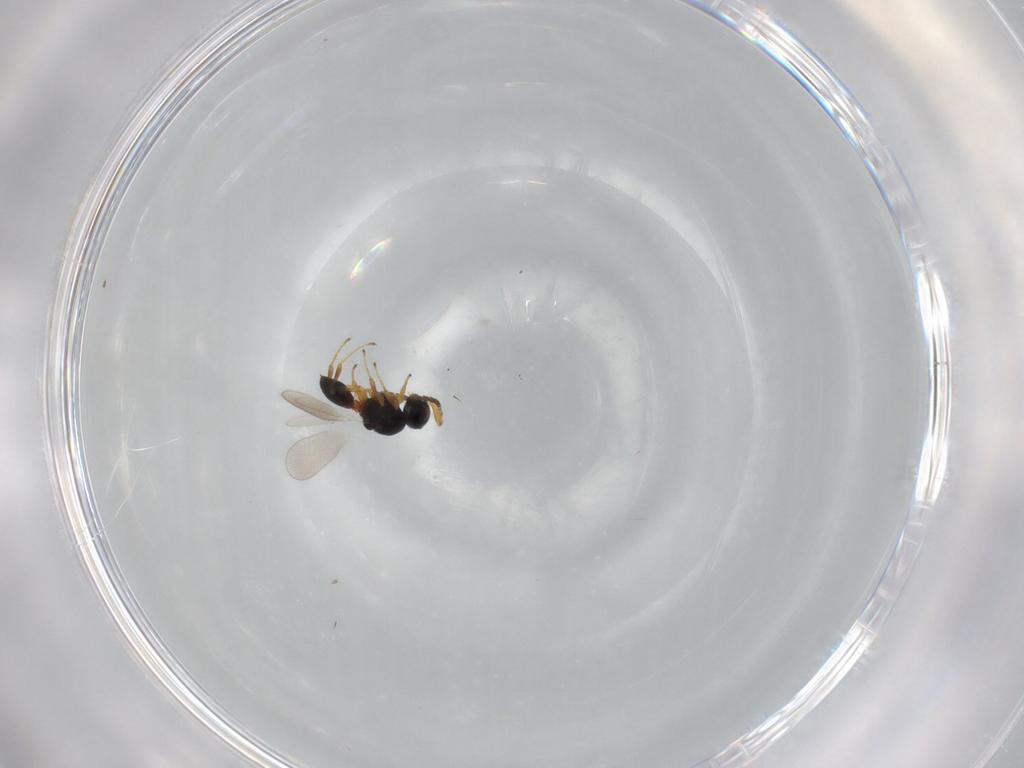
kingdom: Animalia
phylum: Arthropoda
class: Insecta
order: Hymenoptera
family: Platygastridae
